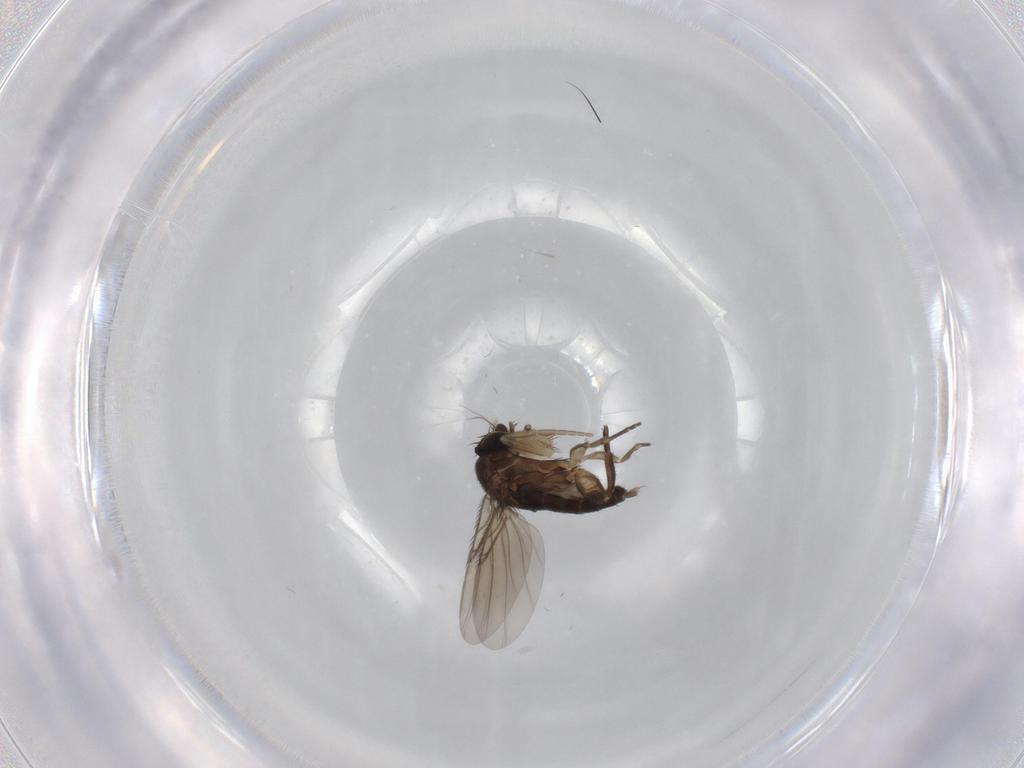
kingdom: Animalia
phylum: Arthropoda
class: Insecta
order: Diptera
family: Phoridae
